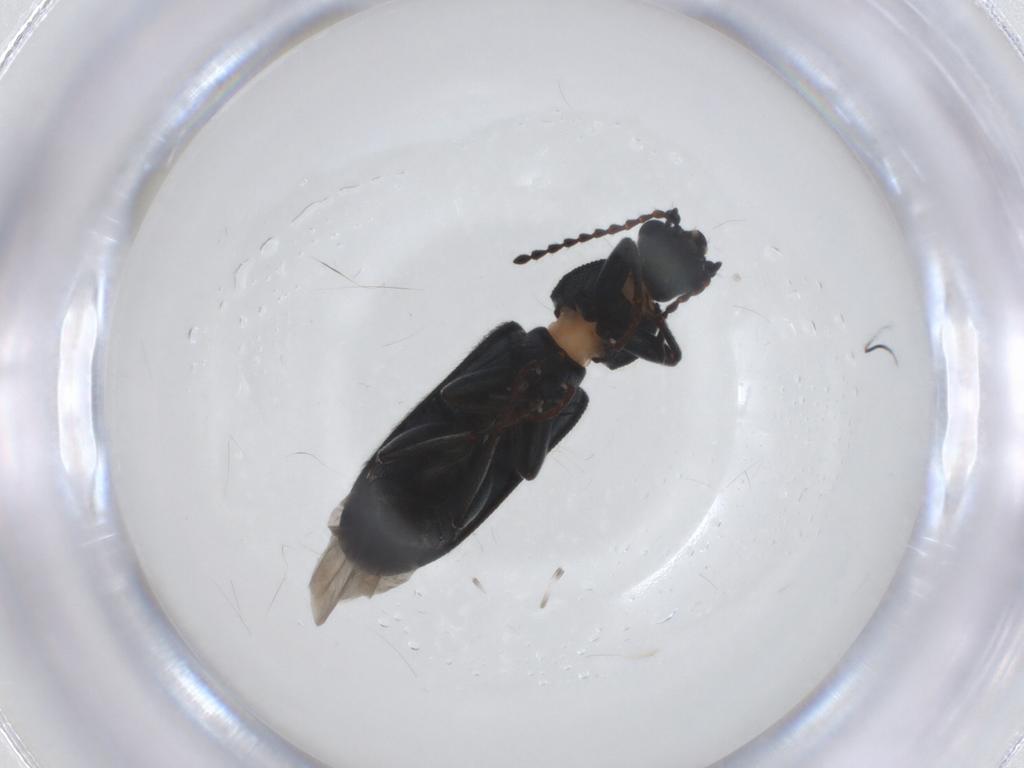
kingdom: Animalia
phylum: Arthropoda
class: Insecta
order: Coleoptera
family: Melyridae
